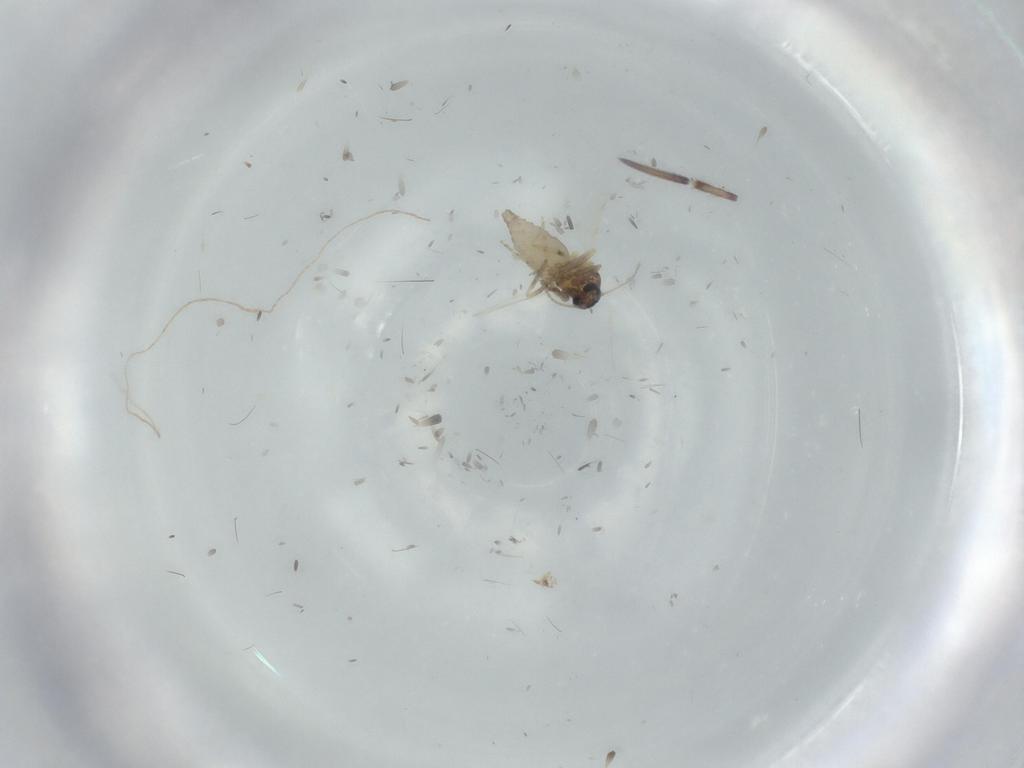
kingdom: Animalia
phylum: Arthropoda
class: Insecta
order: Diptera
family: Ceratopogonidae
